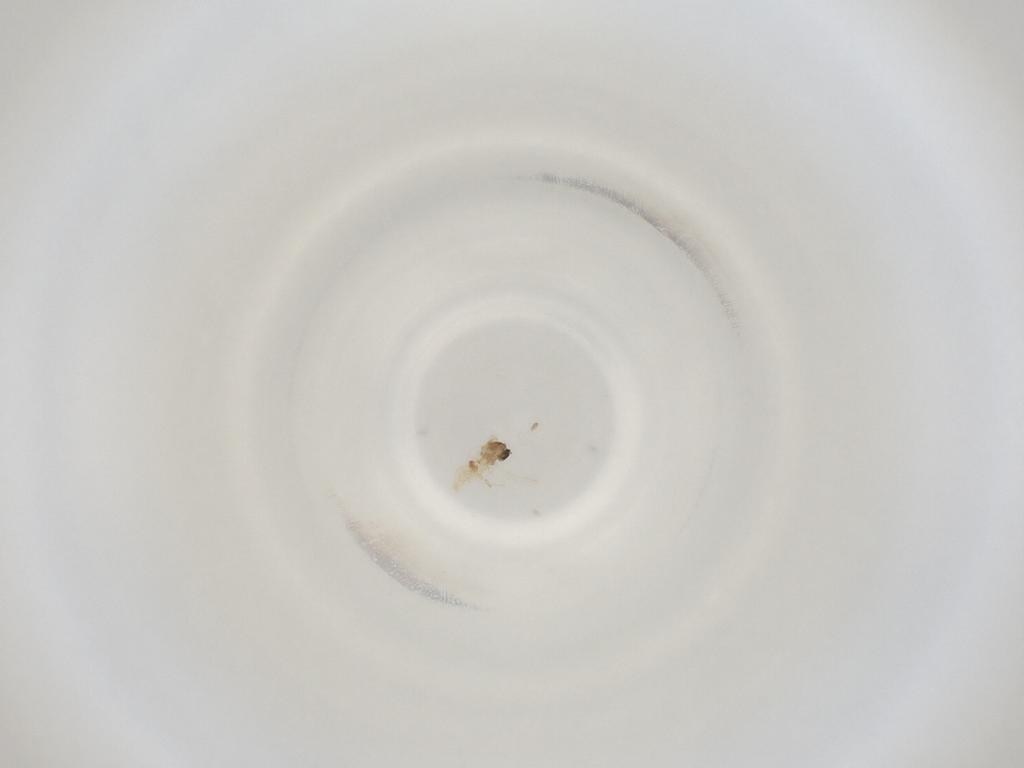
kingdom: Animalia
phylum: Arthropoda
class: Insecta
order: Diptera
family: Cecidomyiidae
